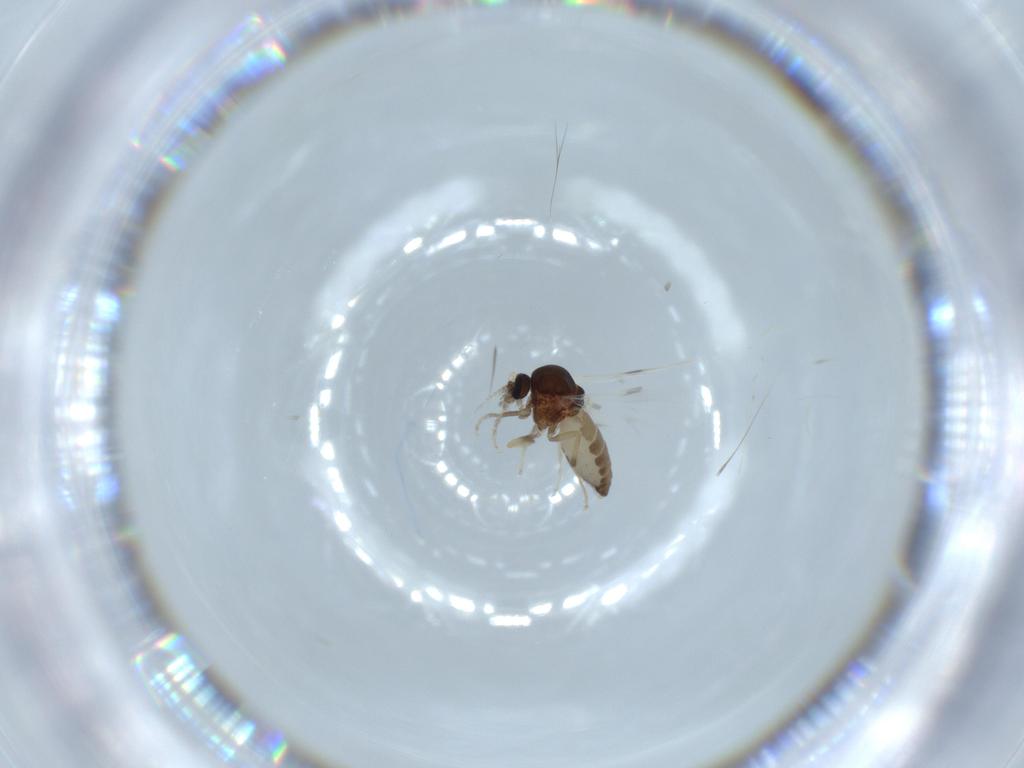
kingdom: Animalia
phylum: Arthropoda
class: Insecta
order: Diptera
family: Ceratopogonidae
